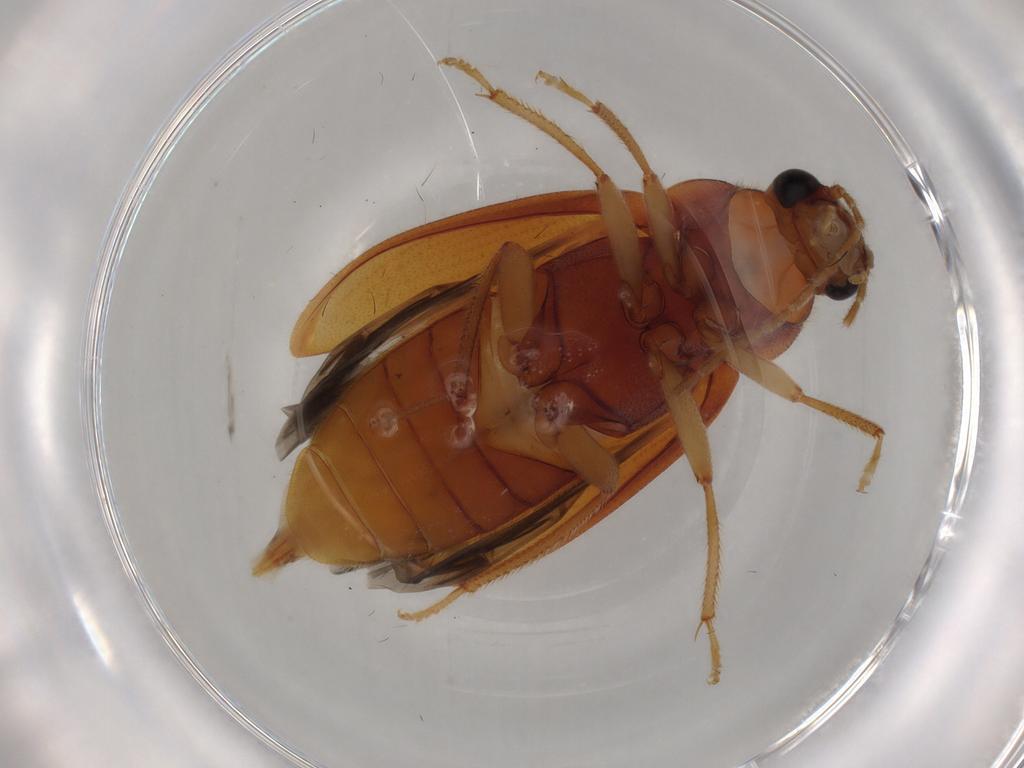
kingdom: Animalia
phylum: Arthropoda
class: Insecta
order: Coleoptera
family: Ptilodactylidae
